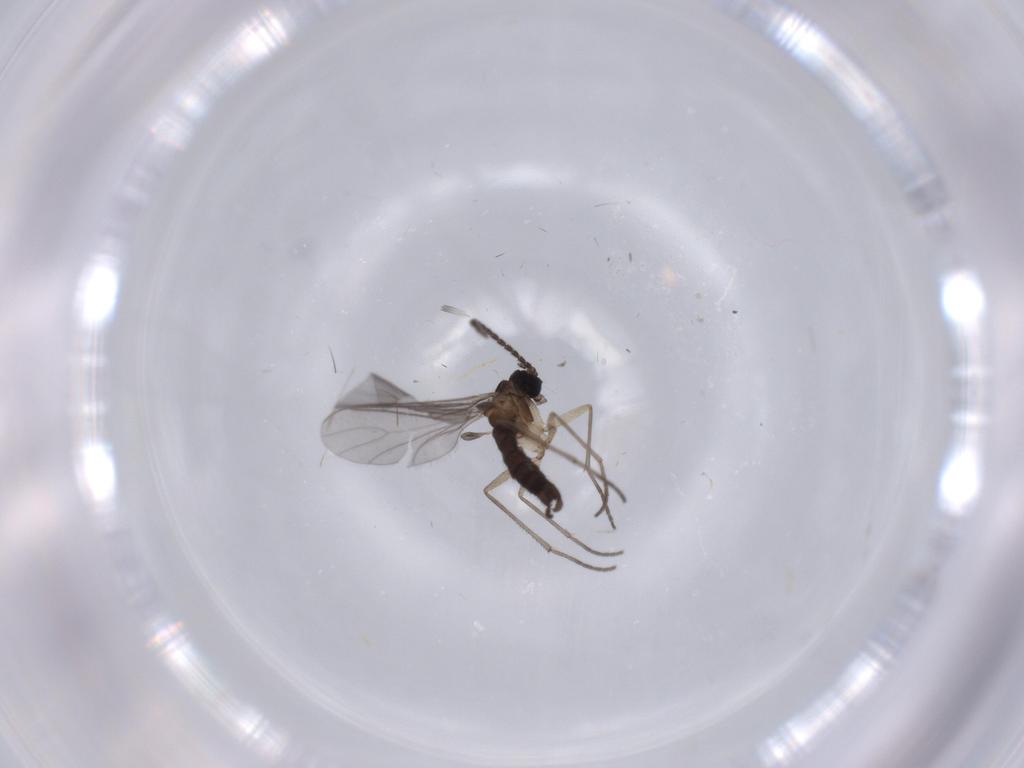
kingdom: Animalia
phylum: Arthropoda
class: Insecta
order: Diptera
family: Sciaridae
